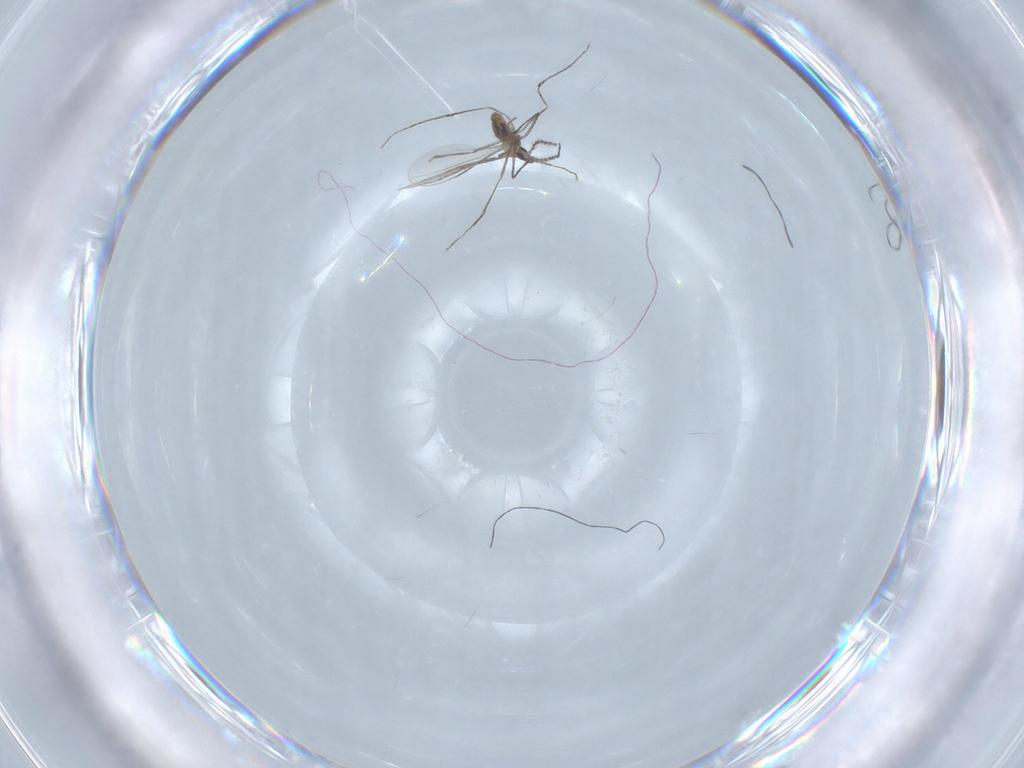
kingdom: Animalia
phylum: Arthropoda
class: Insecta
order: Diptera
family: Cecidomyiidae
